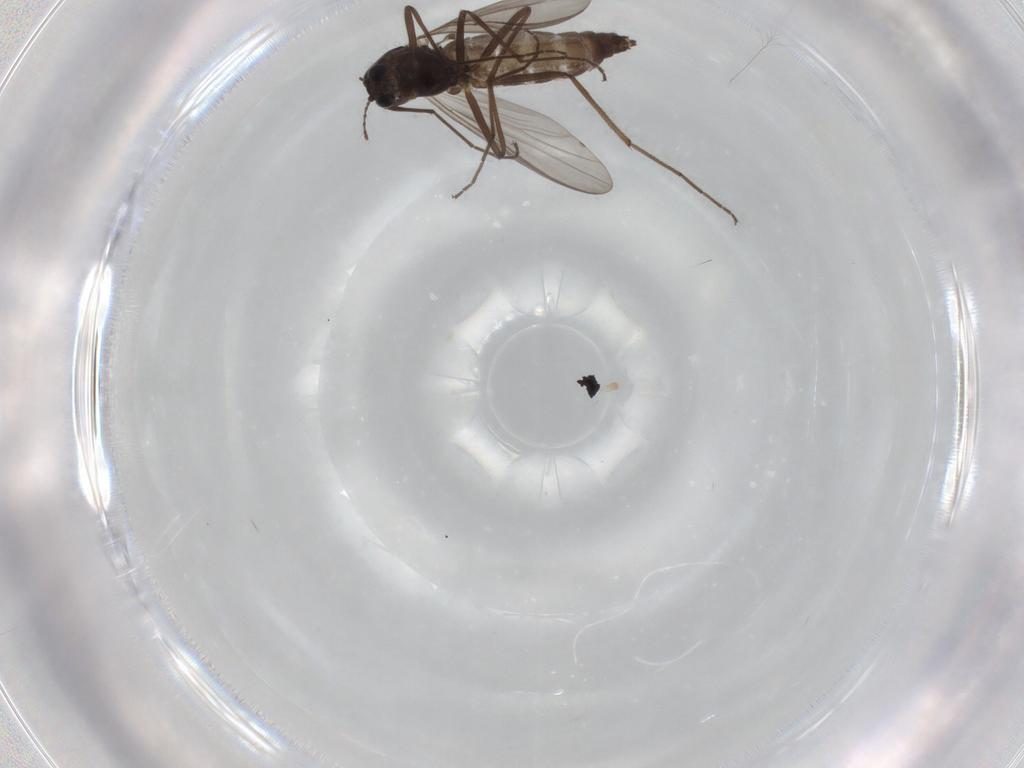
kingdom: Animalia
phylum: Arthropoda
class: Insecta
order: Diptera
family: Chironomidae
